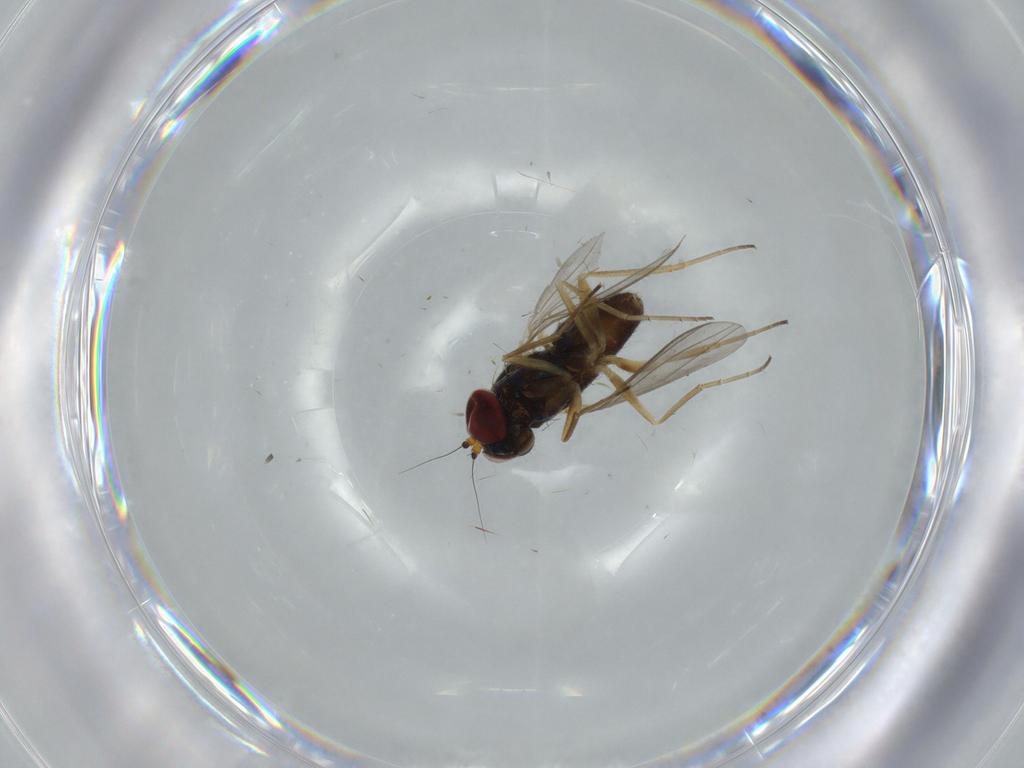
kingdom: Animalia
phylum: Arthropoda
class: Insecta
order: Diptera
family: Dolichopodidae
